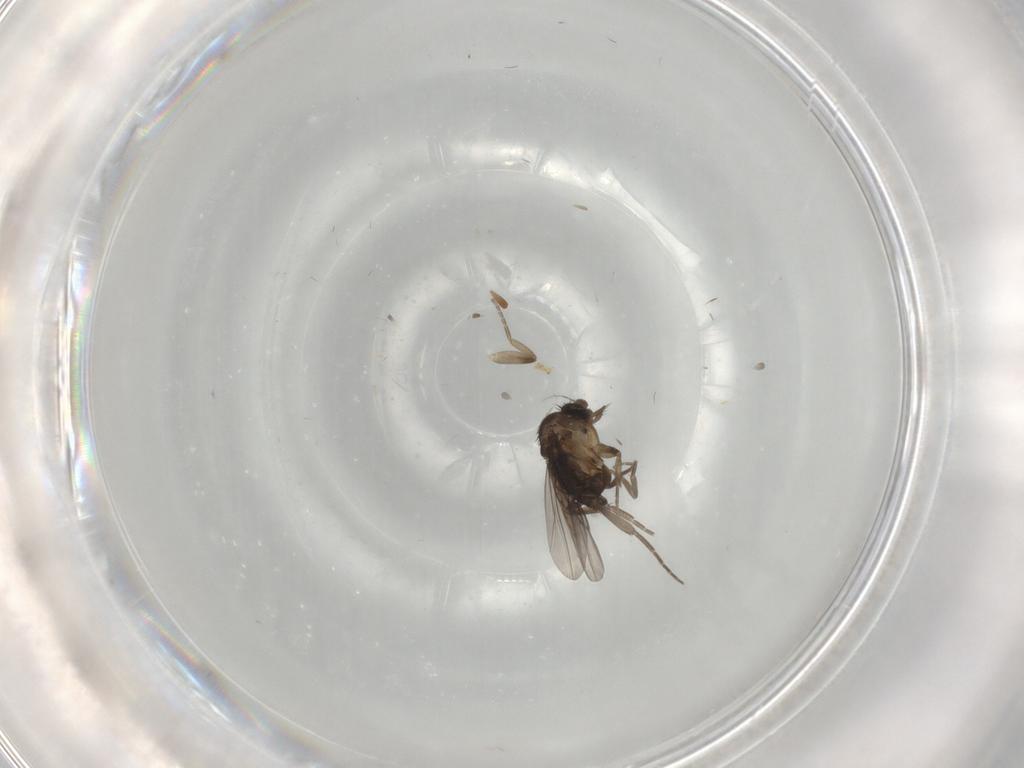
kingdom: Animalia
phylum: Arthropoda
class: Insecta
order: Diptera
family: Phoridae
